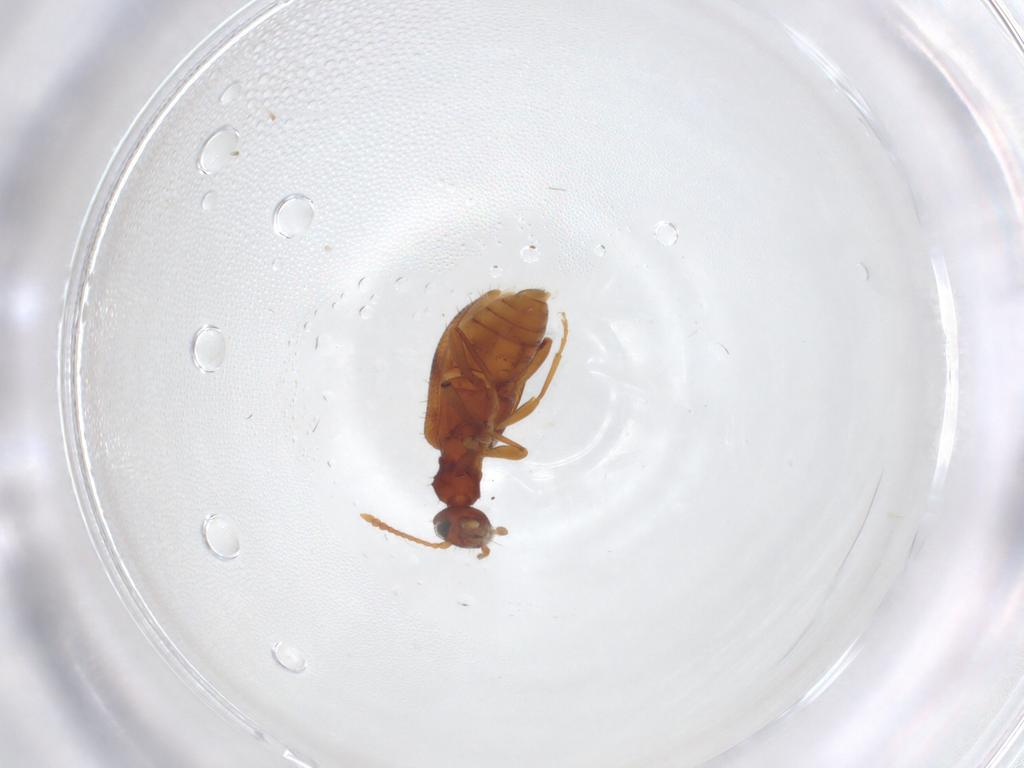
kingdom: Animalia
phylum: Arthropoda
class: Insecta
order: Coleoptera
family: Anthicidae
